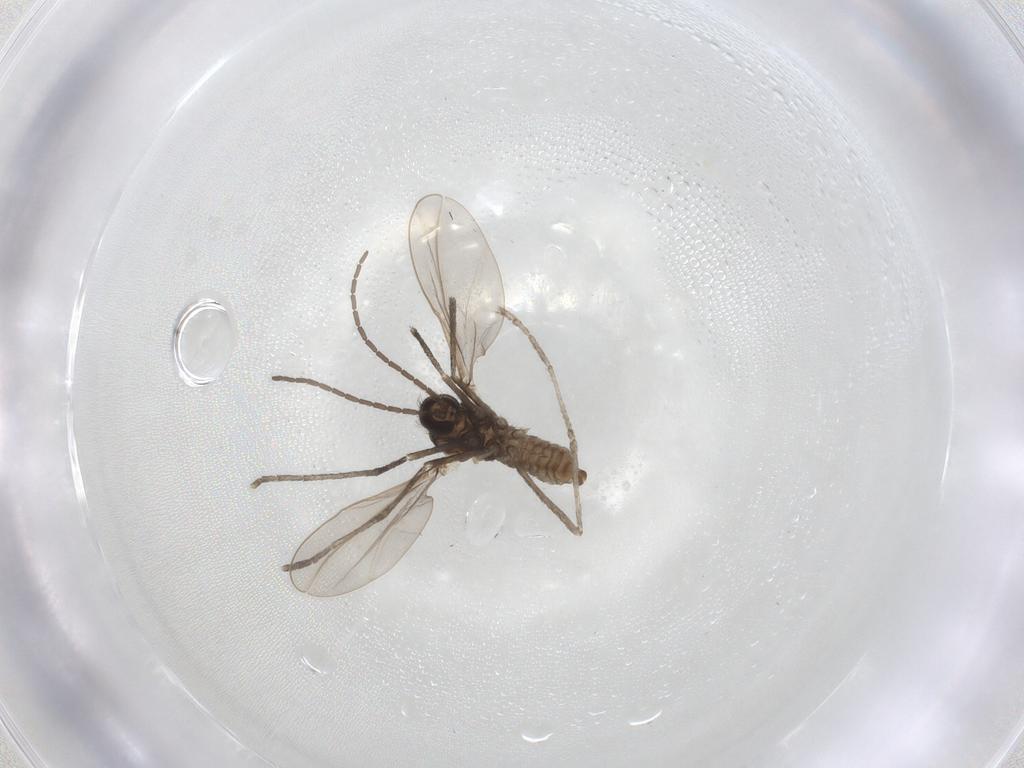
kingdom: Animalia
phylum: Arthropoda
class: Insecta
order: Diptera
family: Cecidomyiidae
